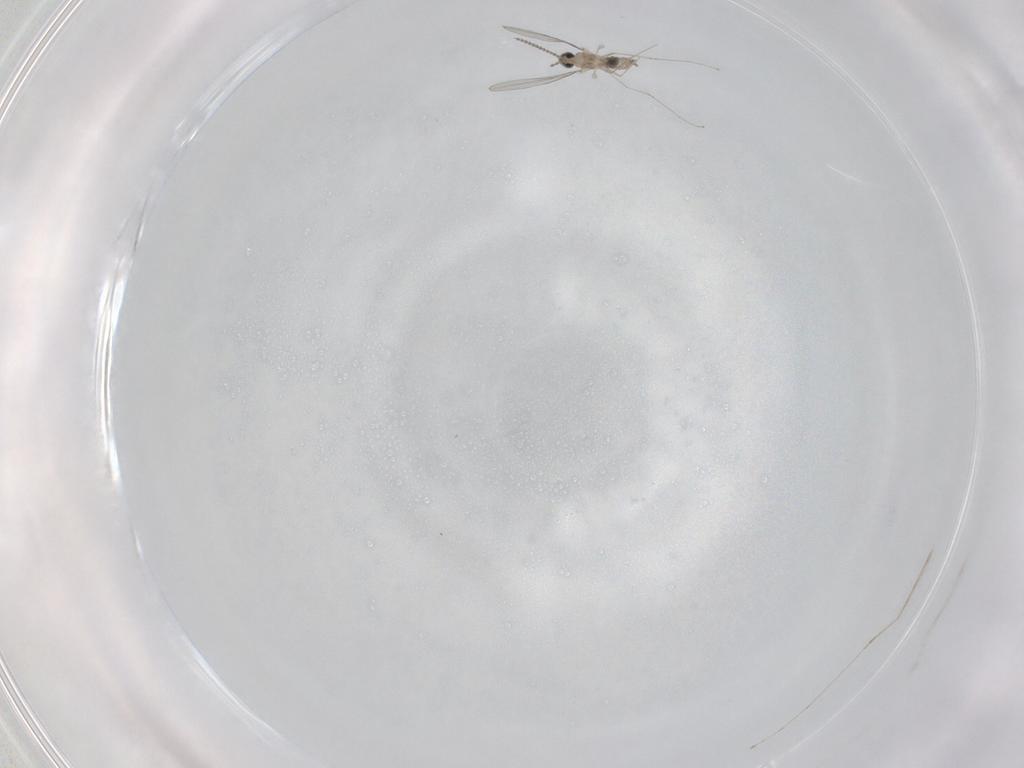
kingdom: Animalia
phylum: Arthropoda
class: Insecta
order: Diptera
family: Cecidomyiidae
